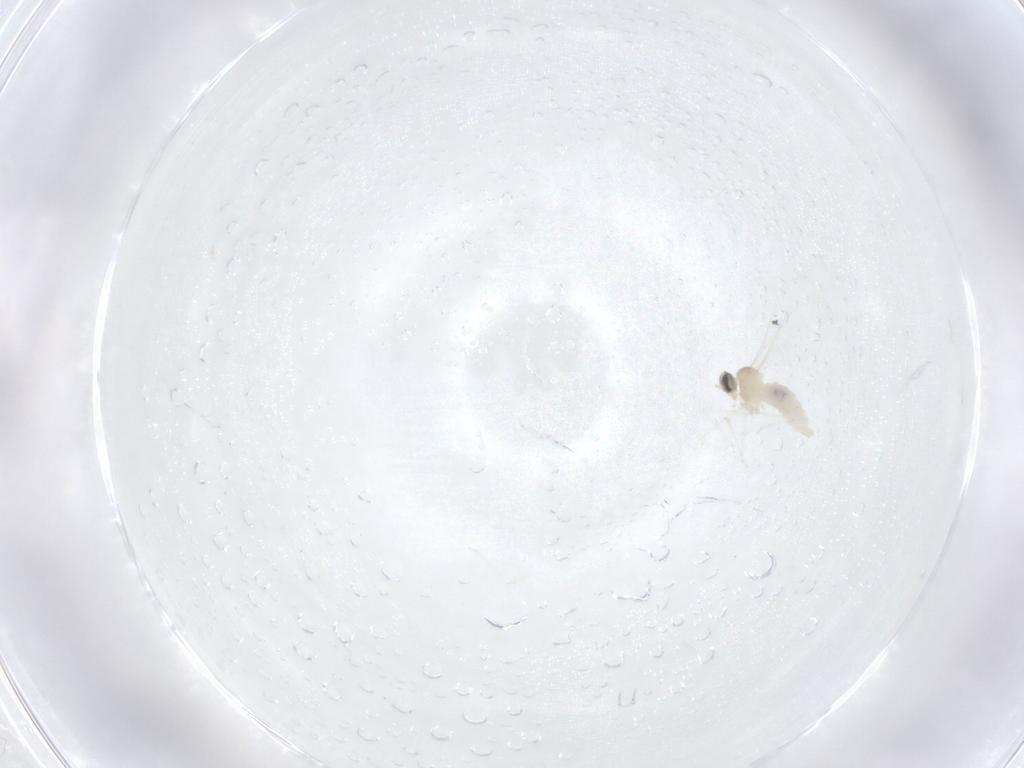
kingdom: Animalia
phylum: Arthropoda
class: Insecta
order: Diptera
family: Cecidomyiidae
